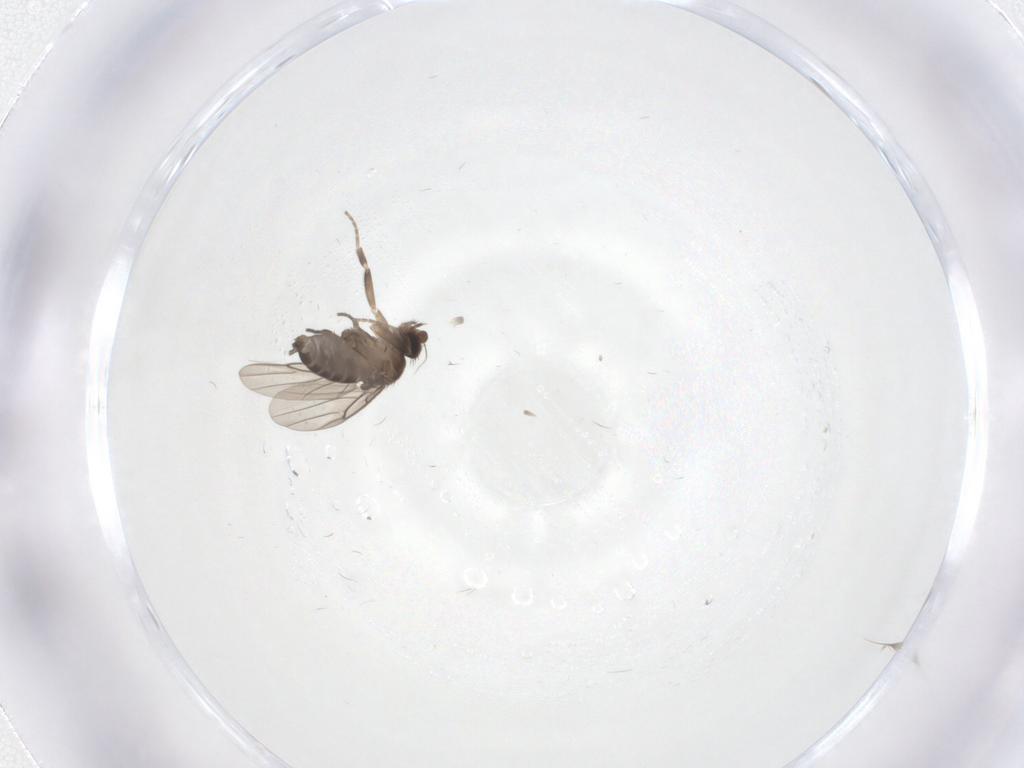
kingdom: Animalia
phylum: Arthropoda
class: Insecta
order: Diptera
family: Phoridae
